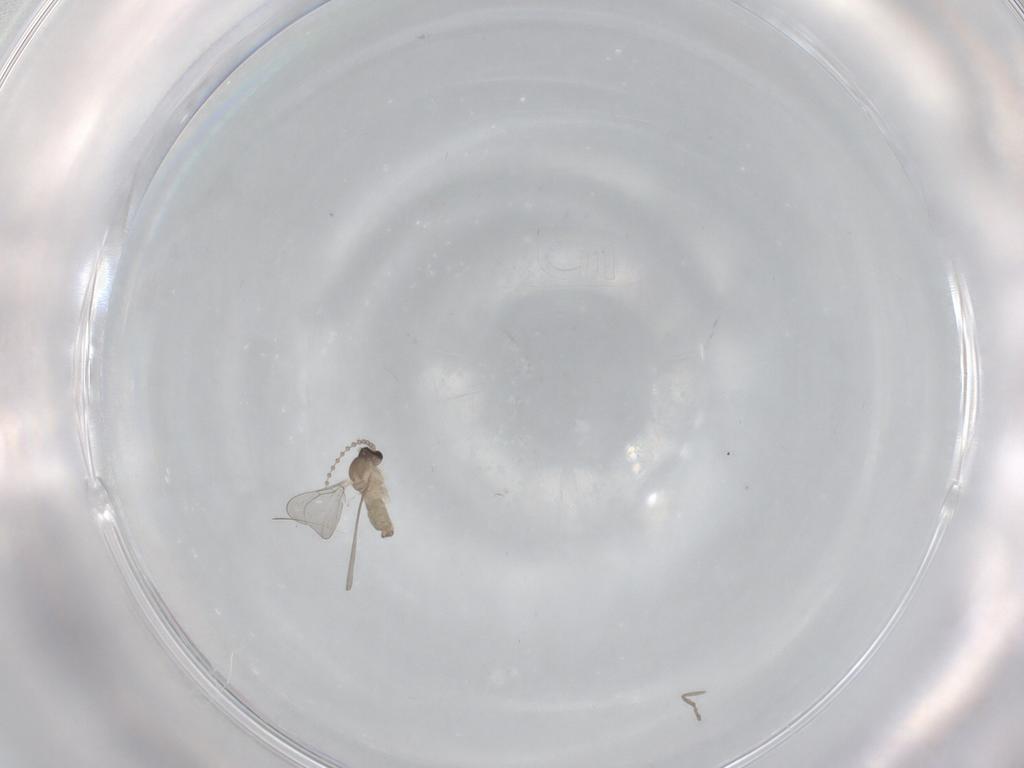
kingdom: Animalia
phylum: Arthropoda
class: Insecta
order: Diptera
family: Cecidomyiidae
